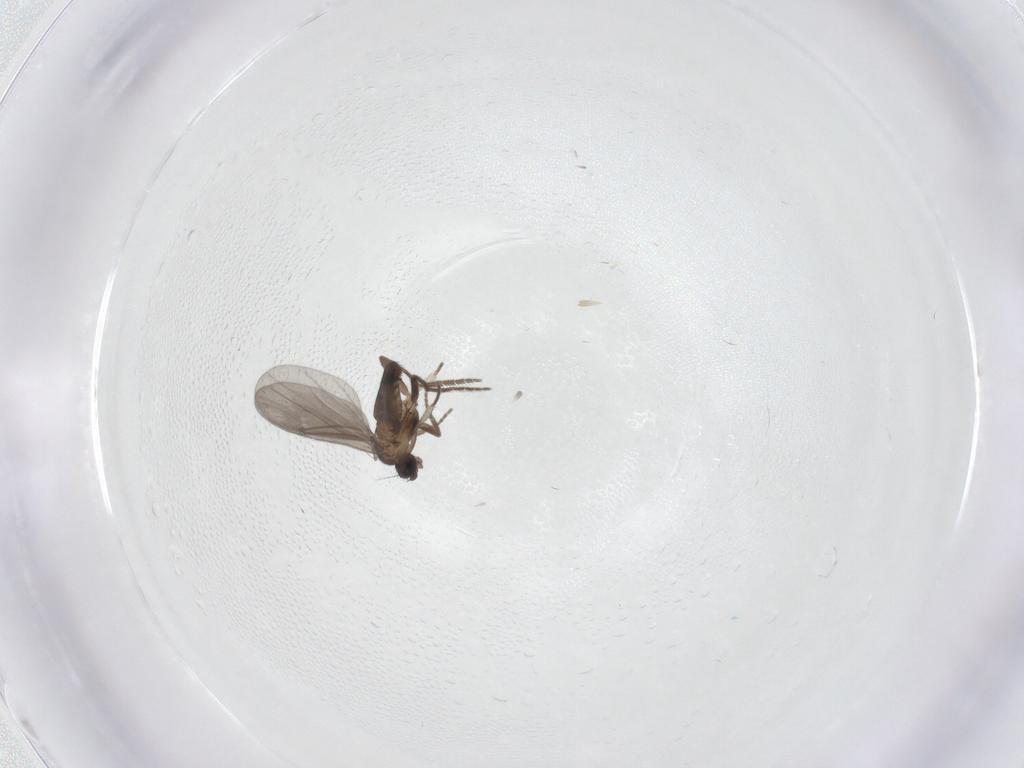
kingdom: Animalia
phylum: Arthropoda
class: Insecta
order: Diptera
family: Phoridae
